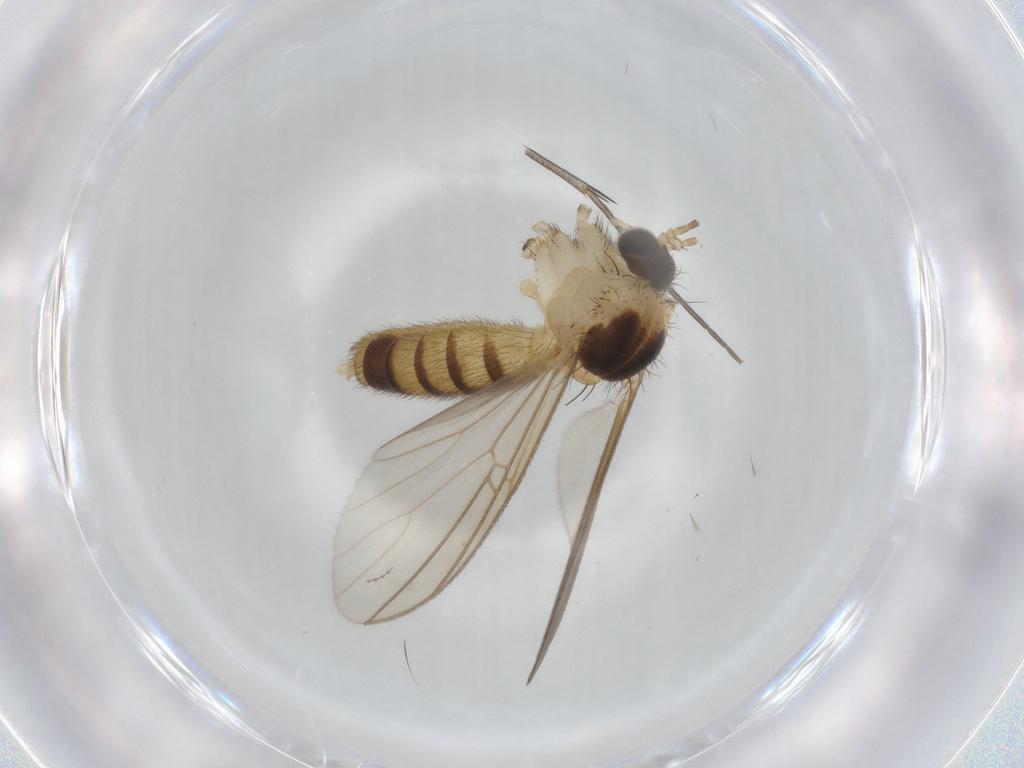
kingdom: Animalia
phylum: Arthropoda
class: Insecta
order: Diptera
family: Mycetophilidae
